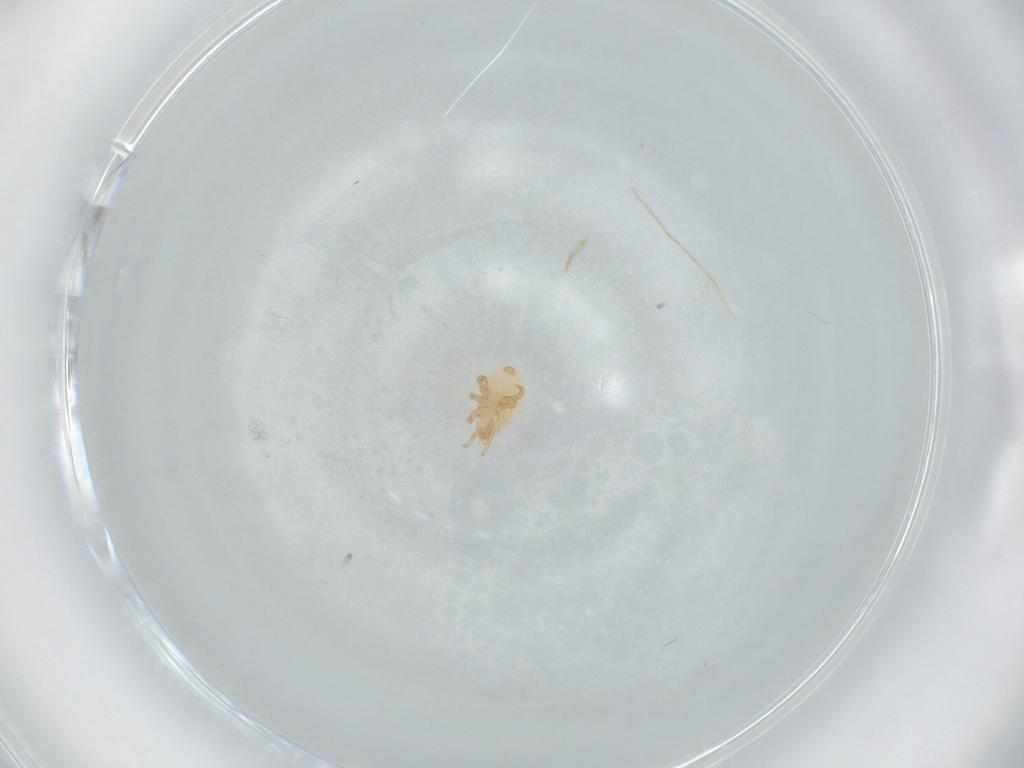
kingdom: Animalia
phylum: Arthropoda
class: Arachnida
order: Mesostigmata
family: Halolaelapidae
